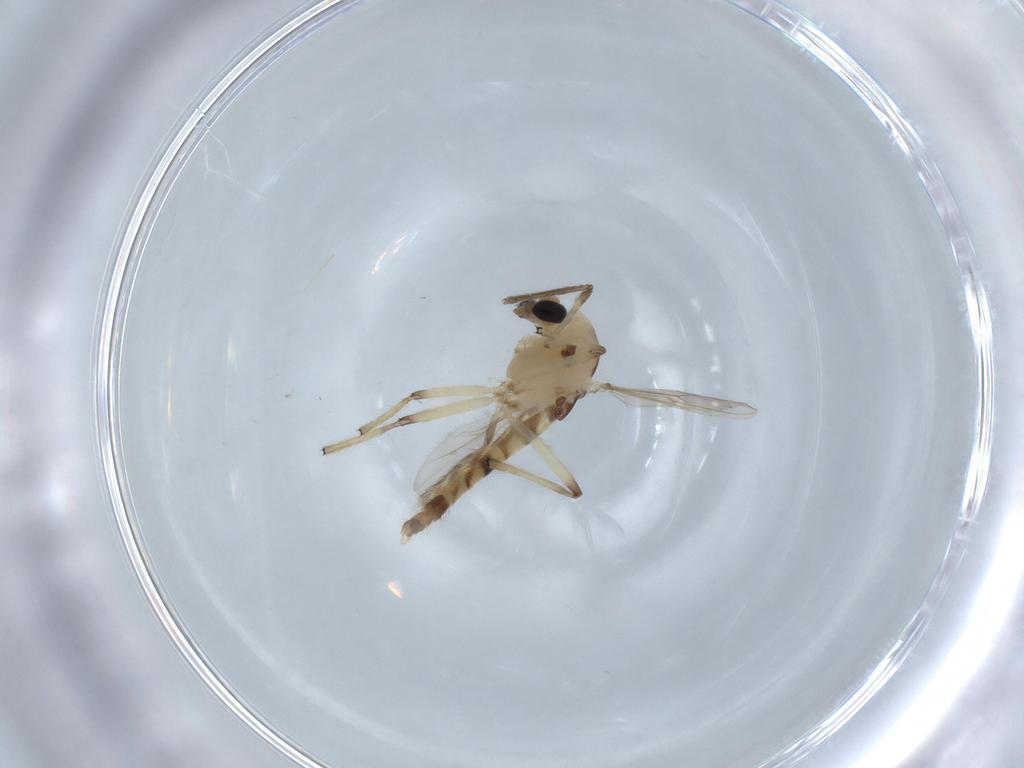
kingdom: Animalia
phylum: Arthropoda
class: Insecta
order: Diptera
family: Chironomidae
